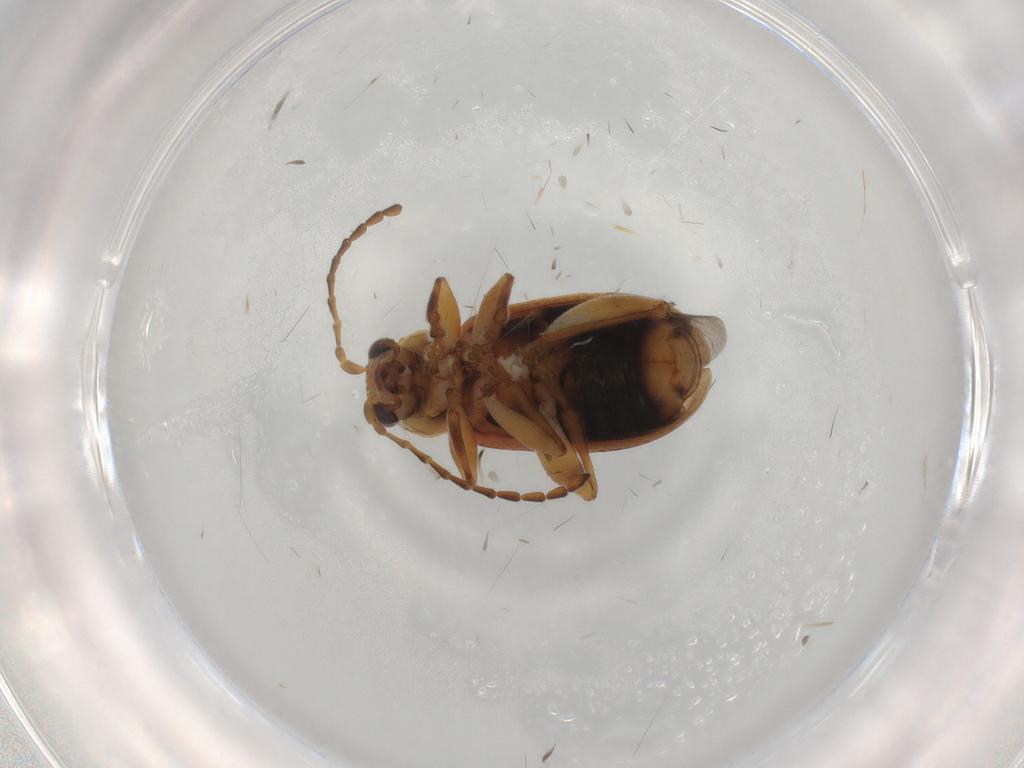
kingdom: Animalia
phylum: Arthropoda
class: Insecta
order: Coleoptera
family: Chrysomelidae
